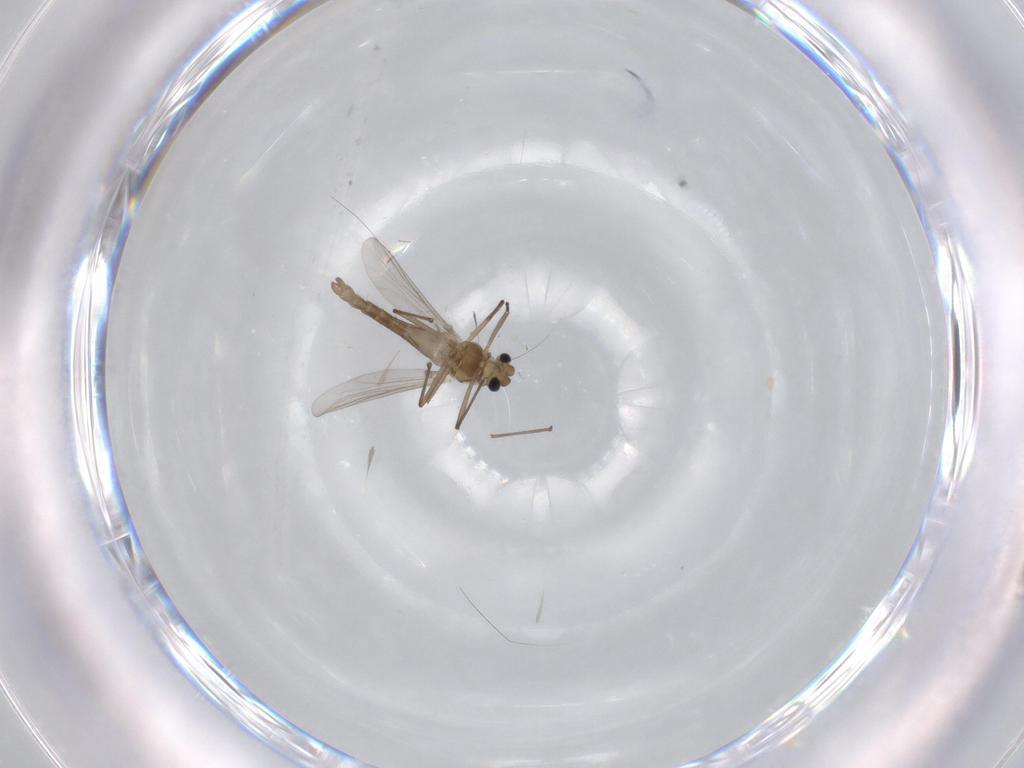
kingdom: Animalia
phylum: Arthropoda
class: Insecta
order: Diptera
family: Chironomidae
